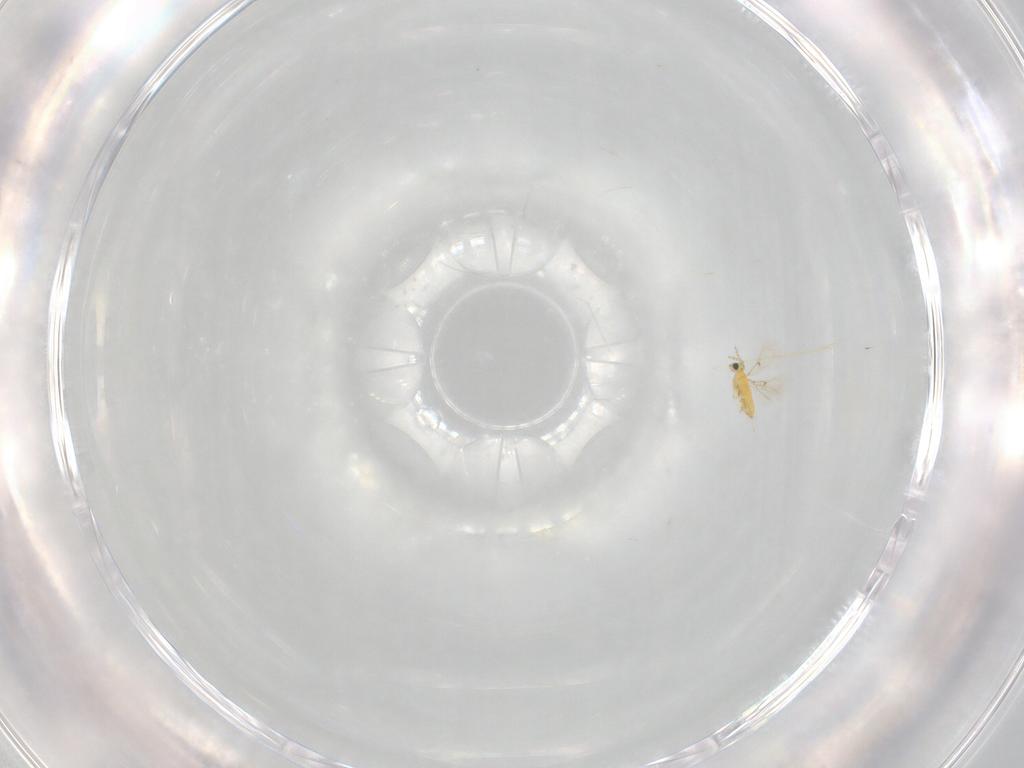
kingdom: Animalia
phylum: Arthropoda
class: Insecta
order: Hymenoptera
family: Trichogrammatidae
